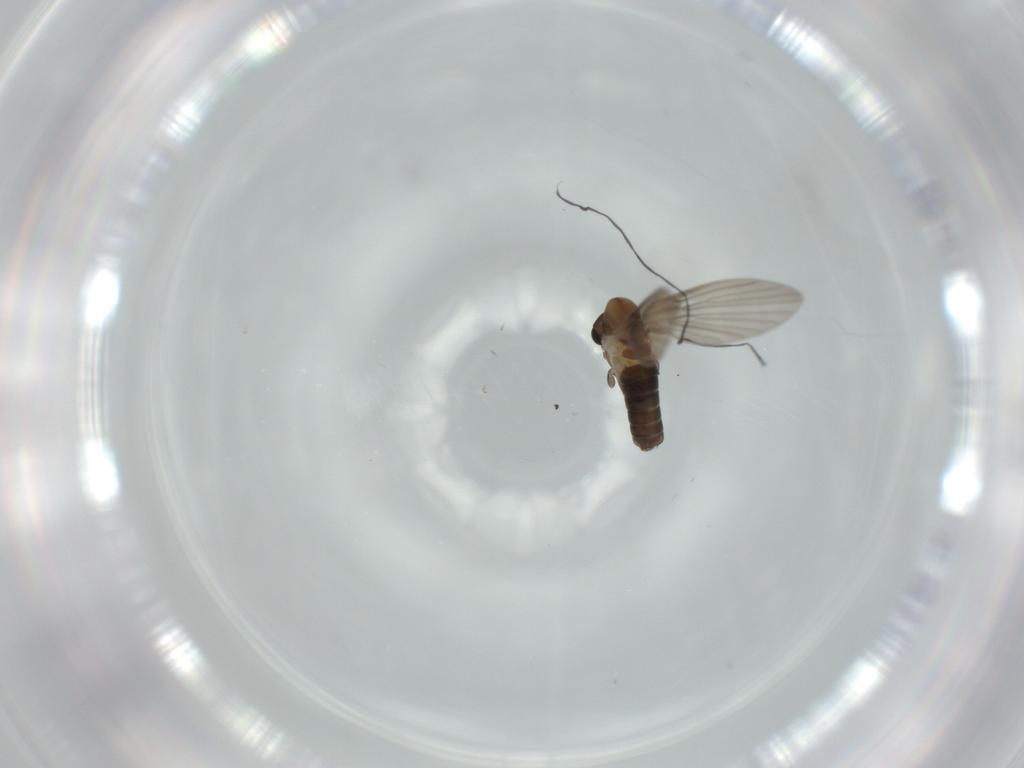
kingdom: Animalia
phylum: Arthropoda
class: Insecta
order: Diptera
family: Psychodidae
